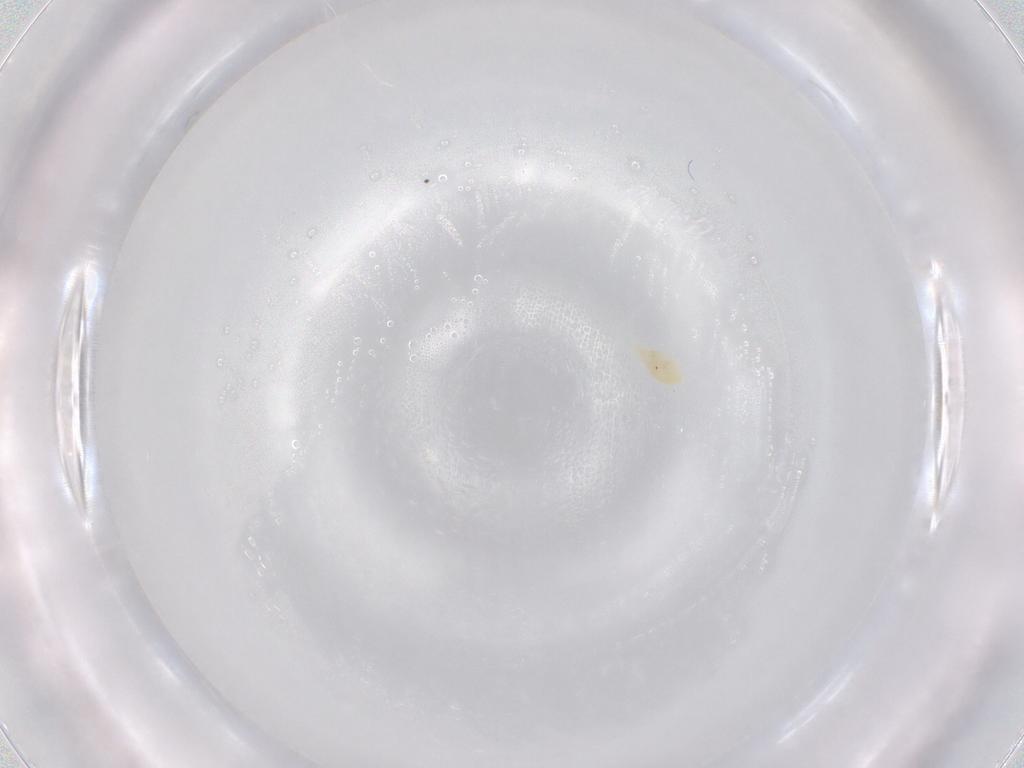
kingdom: Animalia
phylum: Arthropoda
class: Arachnida
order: Trombidiformes
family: Eupodidae
